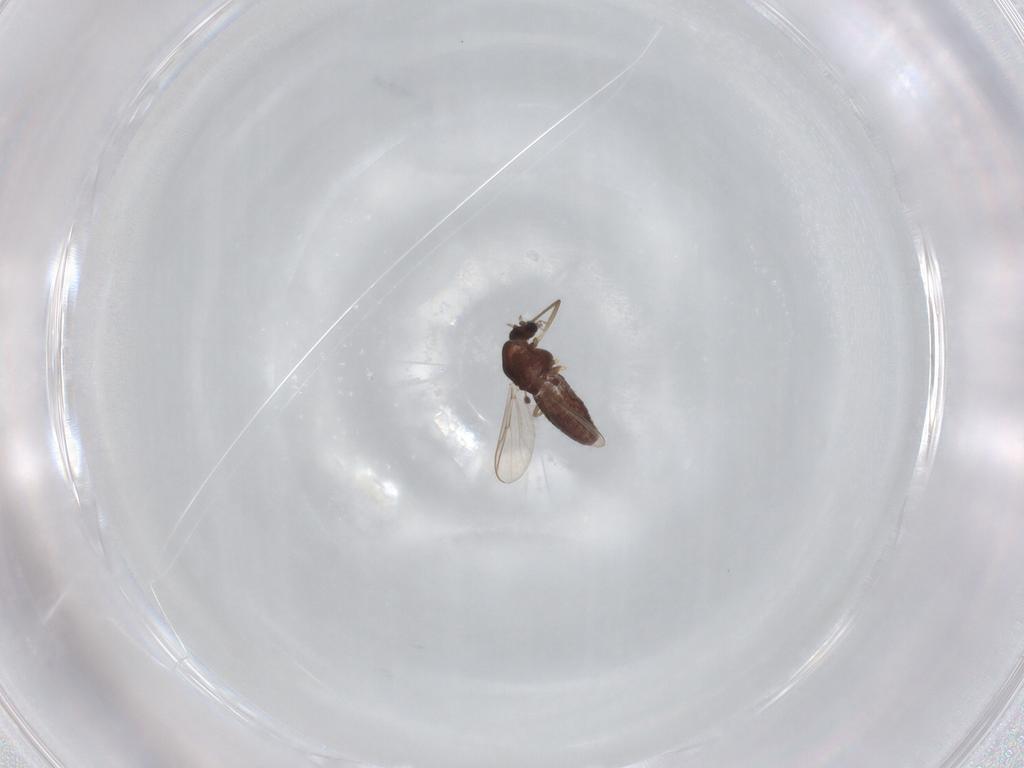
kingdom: Animalia
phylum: Arthropoda
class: Insecta
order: Diptera
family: Chironomidae
